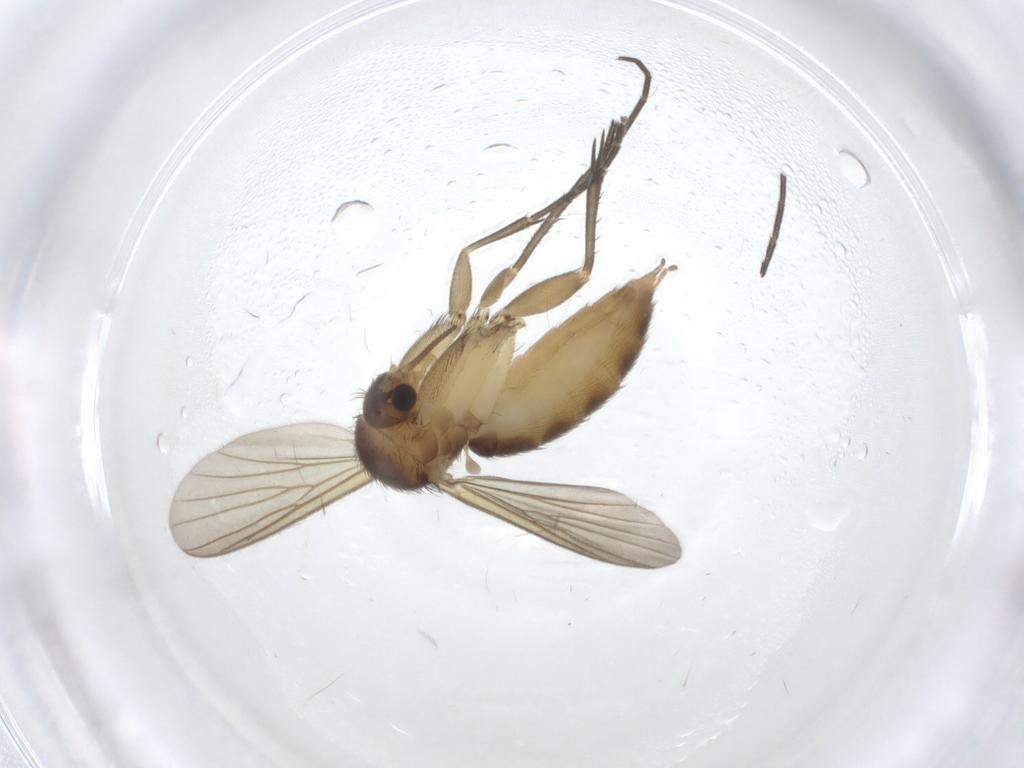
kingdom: Animalia
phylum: Arthropoda
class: Insecta
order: Diptera
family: Mycetophilidae
